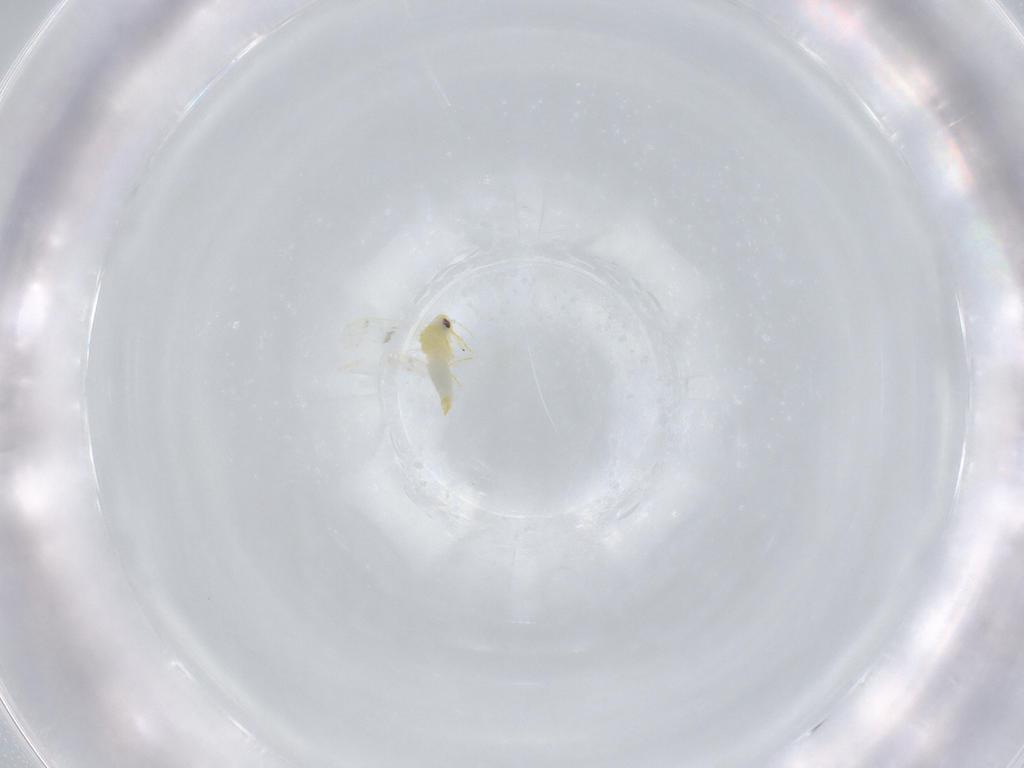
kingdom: Animalia
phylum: Arthropoda
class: Insecta
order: Hemiptera
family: Aleyrodidae
